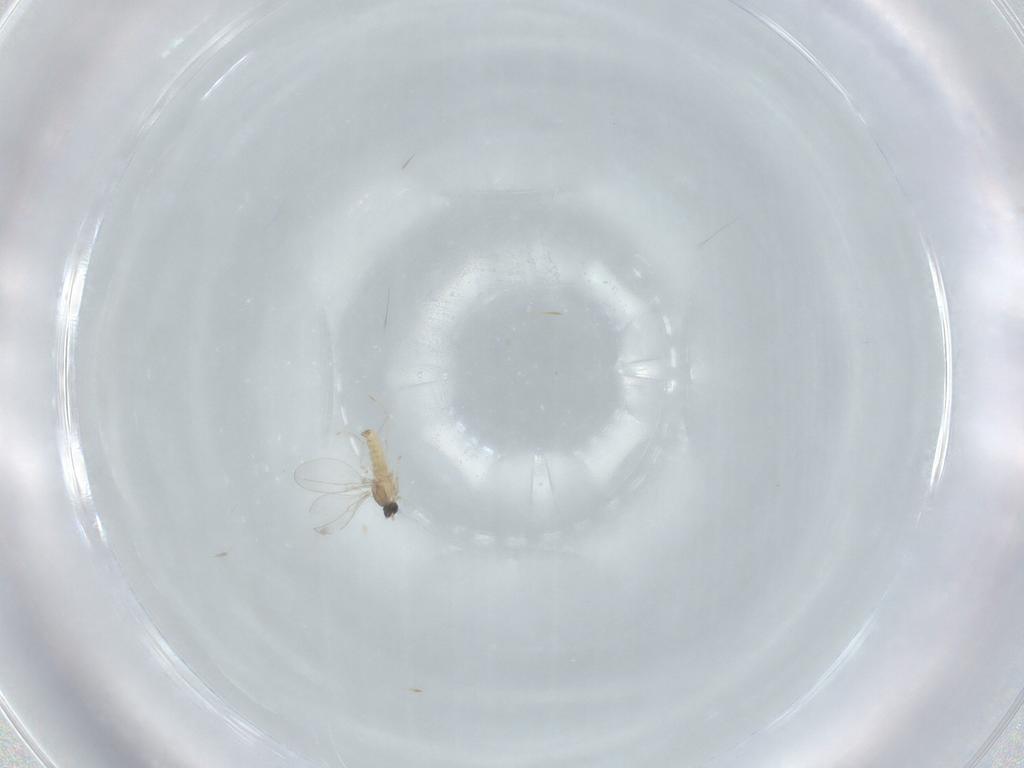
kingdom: Animalia
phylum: Arthropoda
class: Insecta
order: Diptera
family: Cecidomyiidae
